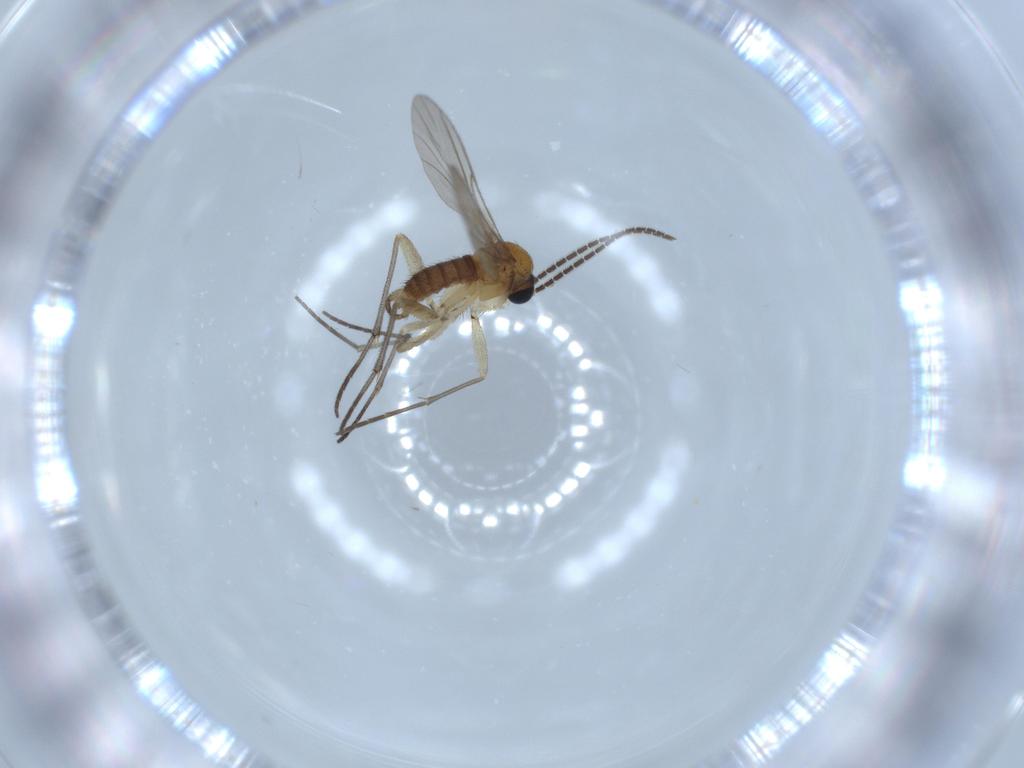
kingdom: Animalia
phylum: Arthropoda
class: Insecta
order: Diptera
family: Sciaridae
